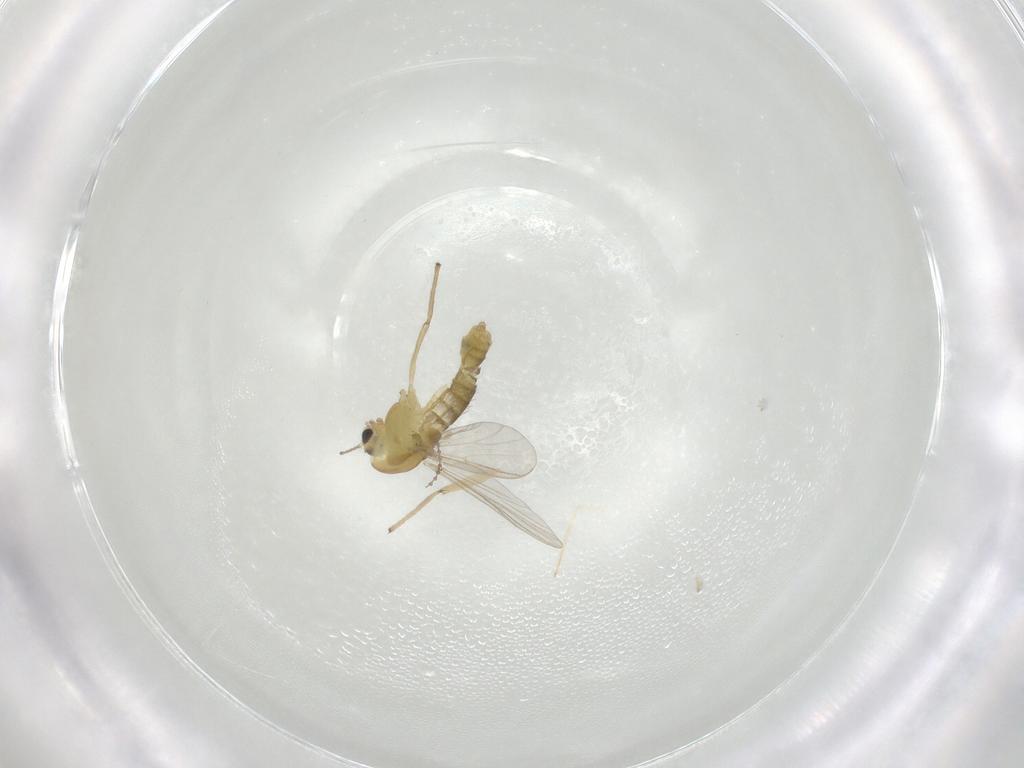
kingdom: Animalia
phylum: Arthropoda
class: Insecta
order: Diptera
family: Chironomidae
